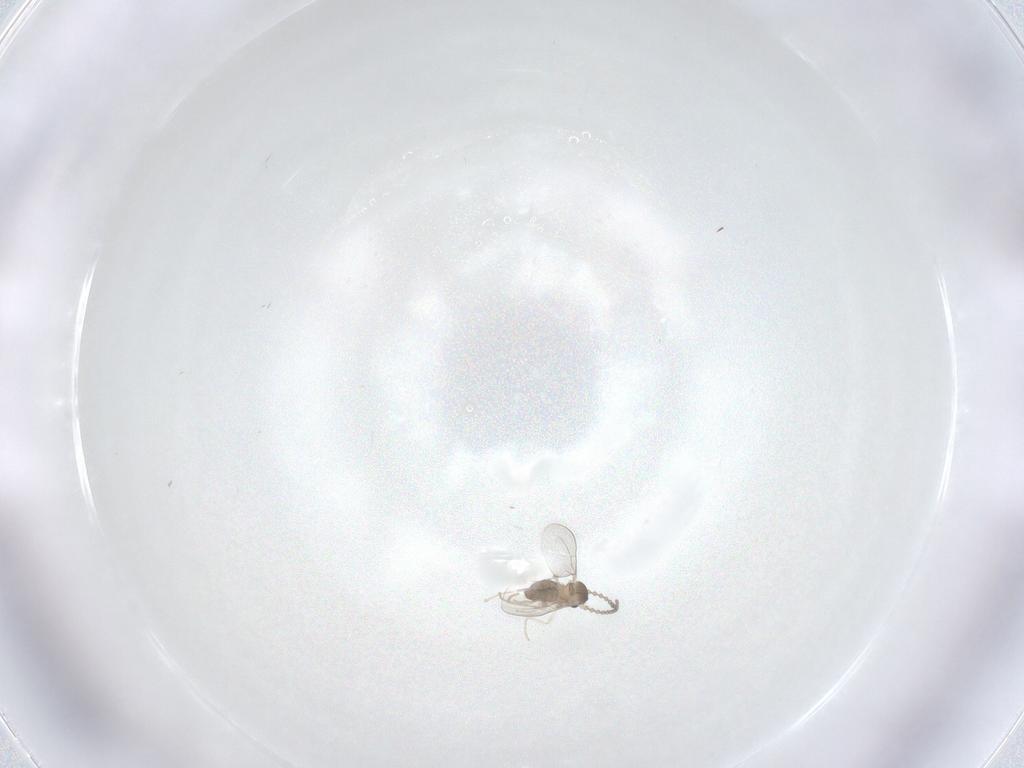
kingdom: Animalia
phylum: Arthropoda
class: Insecta
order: Diptera
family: Cecidomyiidae
